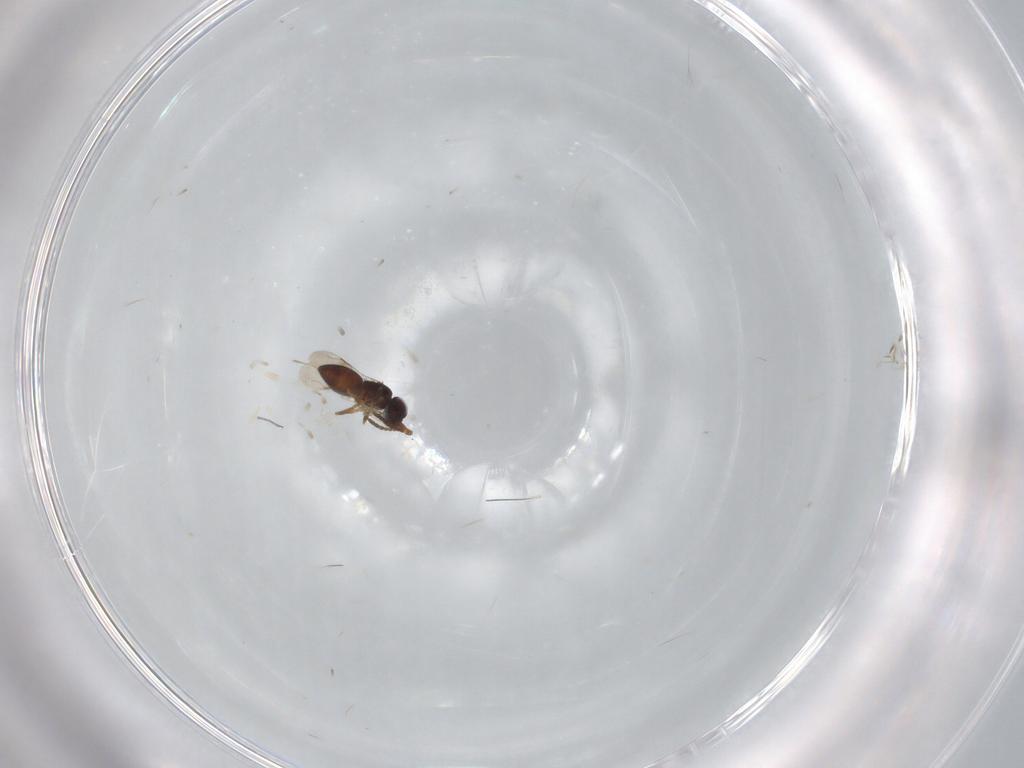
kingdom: Animalia
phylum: Arthropoda
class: Insecta
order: Hymenoptera
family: Ceraphronidae
